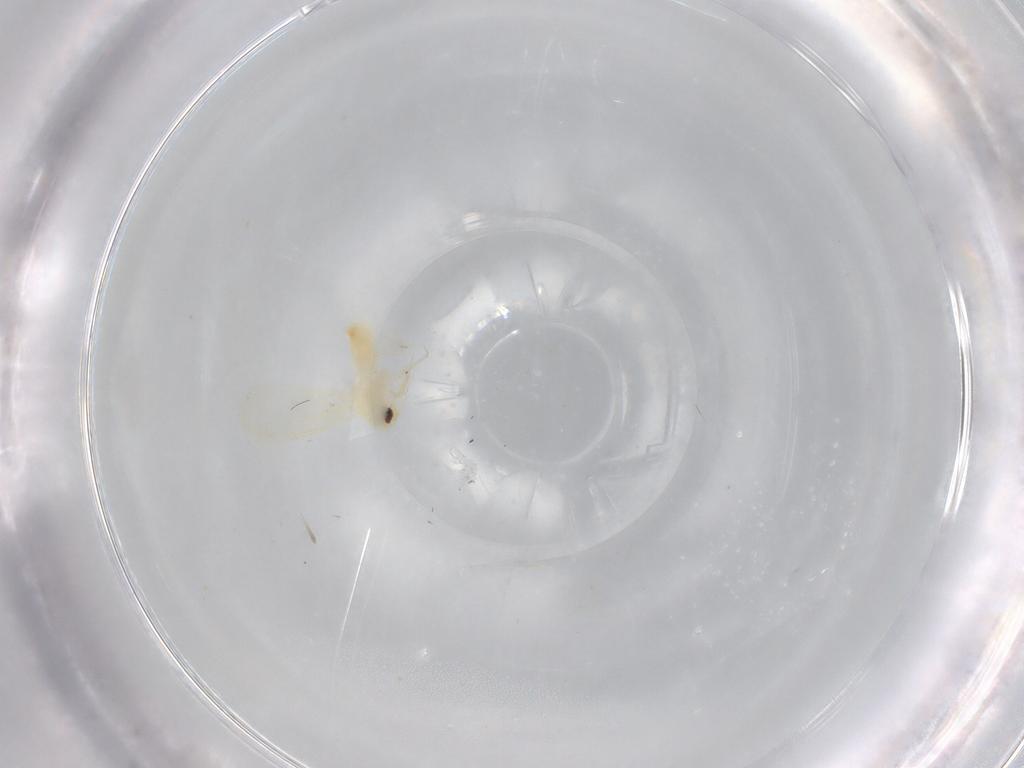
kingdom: Animalia
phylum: Arthropoda
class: Insecta
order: Hemiptera
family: Aleyrodidae
